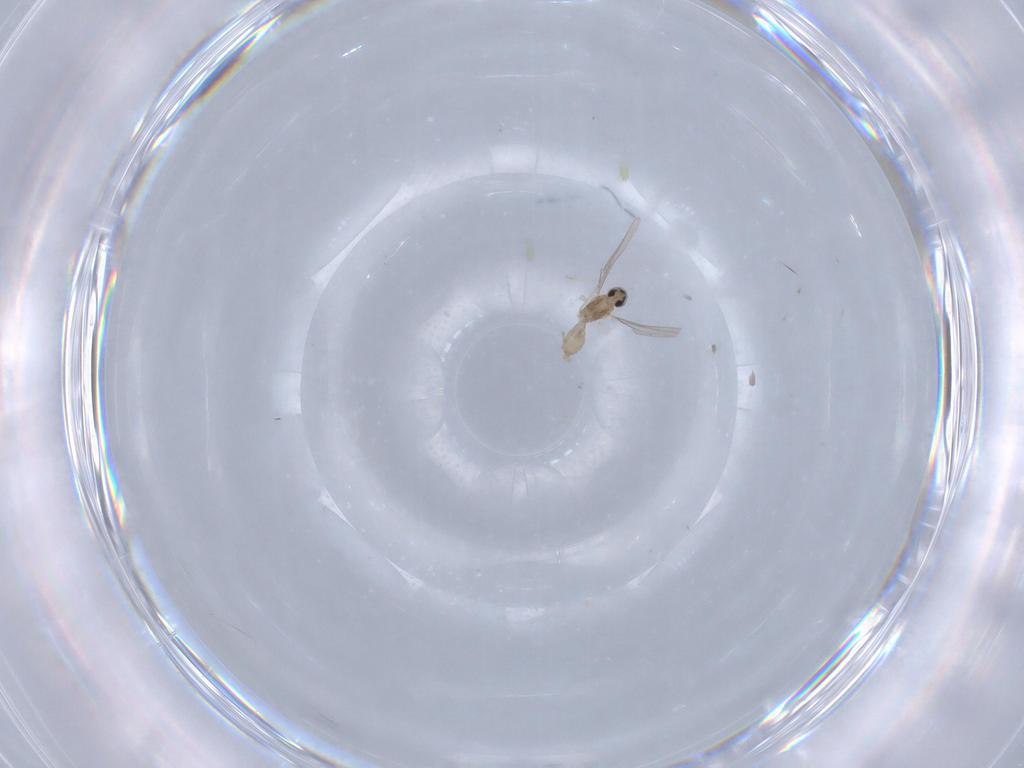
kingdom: Animalia
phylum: Arthropoda
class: Insecta
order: Diptera
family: Cecidomyiidae
